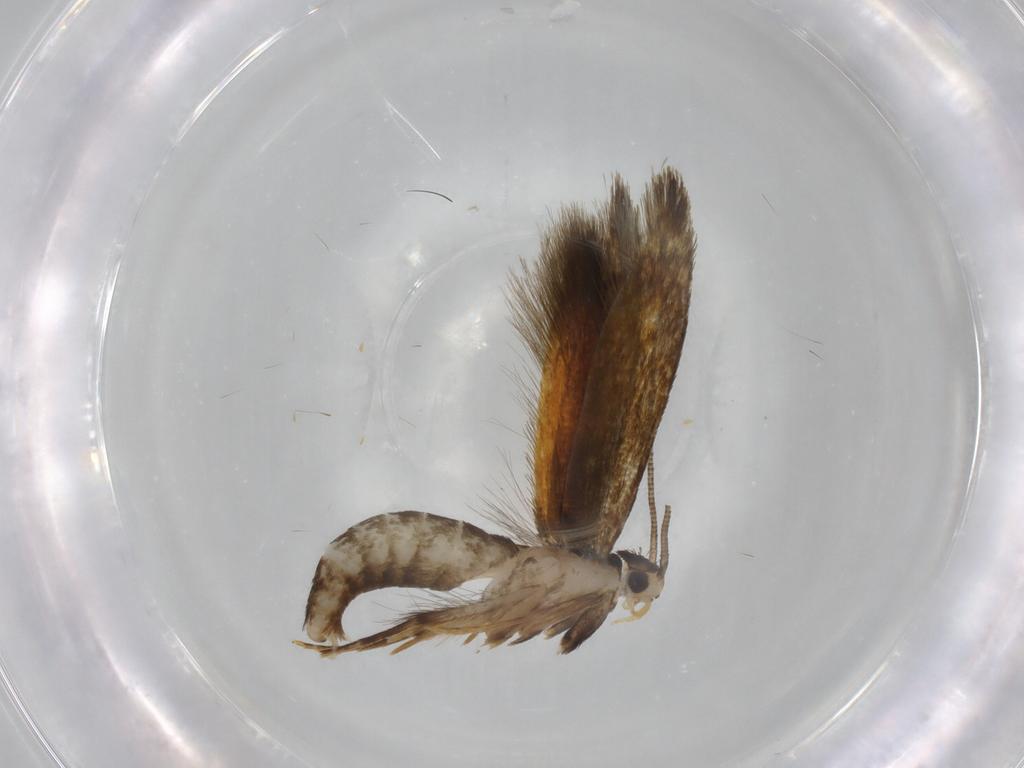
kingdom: Animalia
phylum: Arthropoda
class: Insecta
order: Lepidoptera
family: Tineidae
